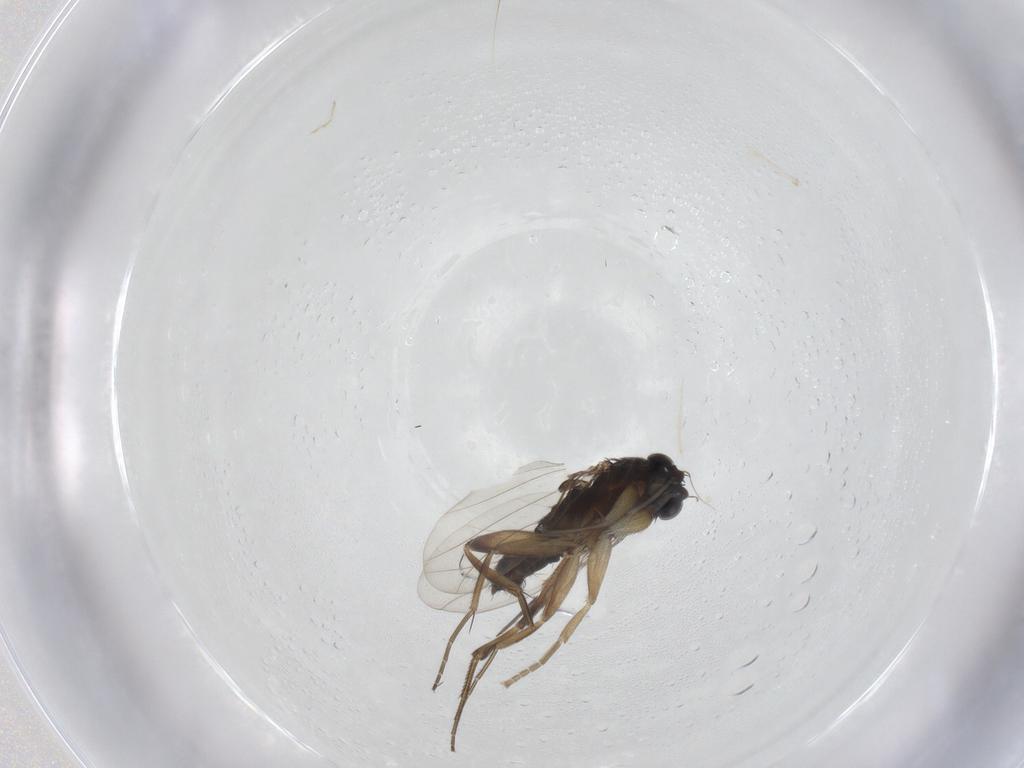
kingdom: Animalia
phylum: Arthropoda
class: Insecta
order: Diptera
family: Phoridae
